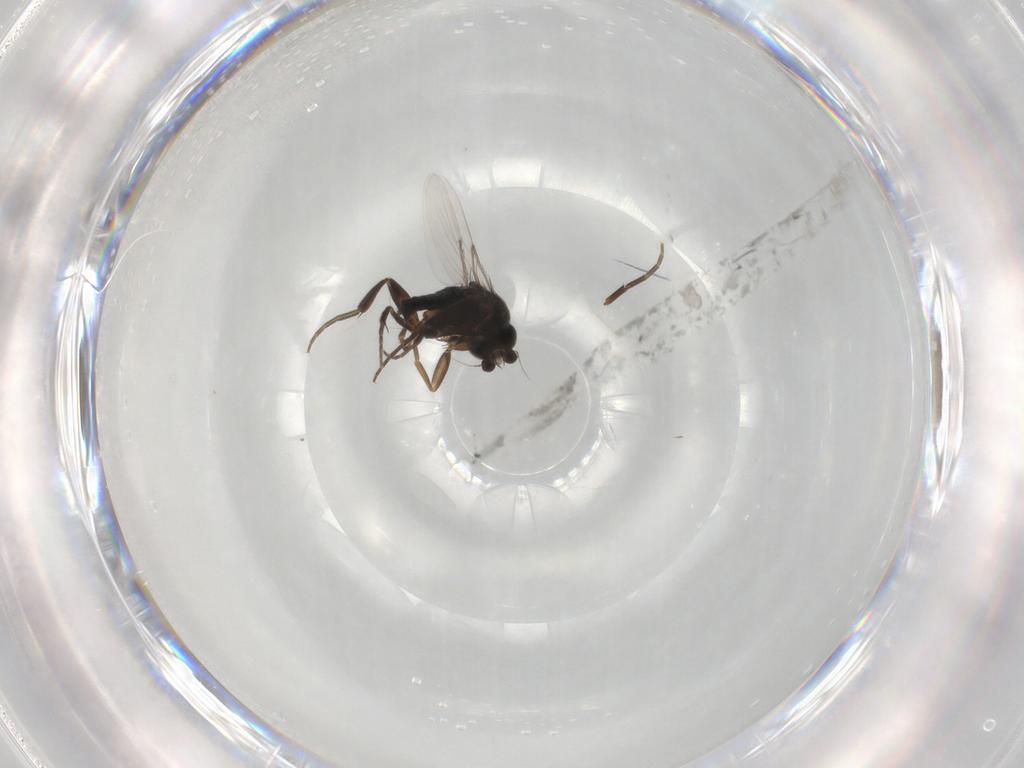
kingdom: Animalia
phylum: Arthropoda
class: Insecta
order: Diptera
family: Phoridae
